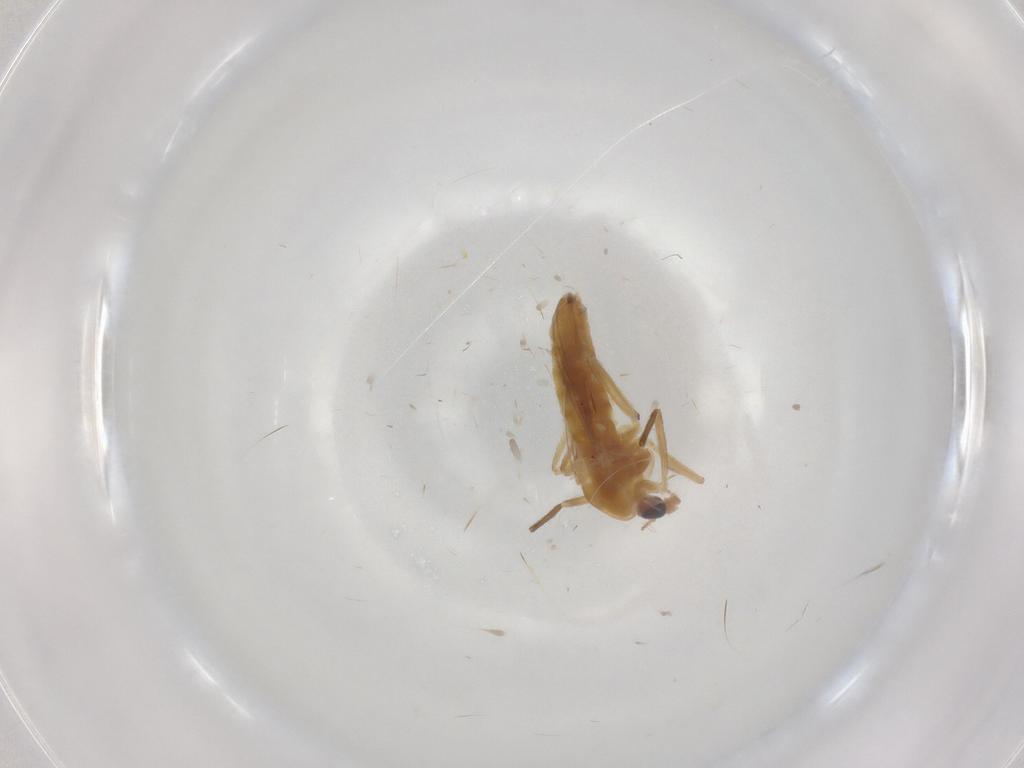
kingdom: Animalia
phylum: Arthropoda
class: Insecta
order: Diptera
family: Chironomidae
